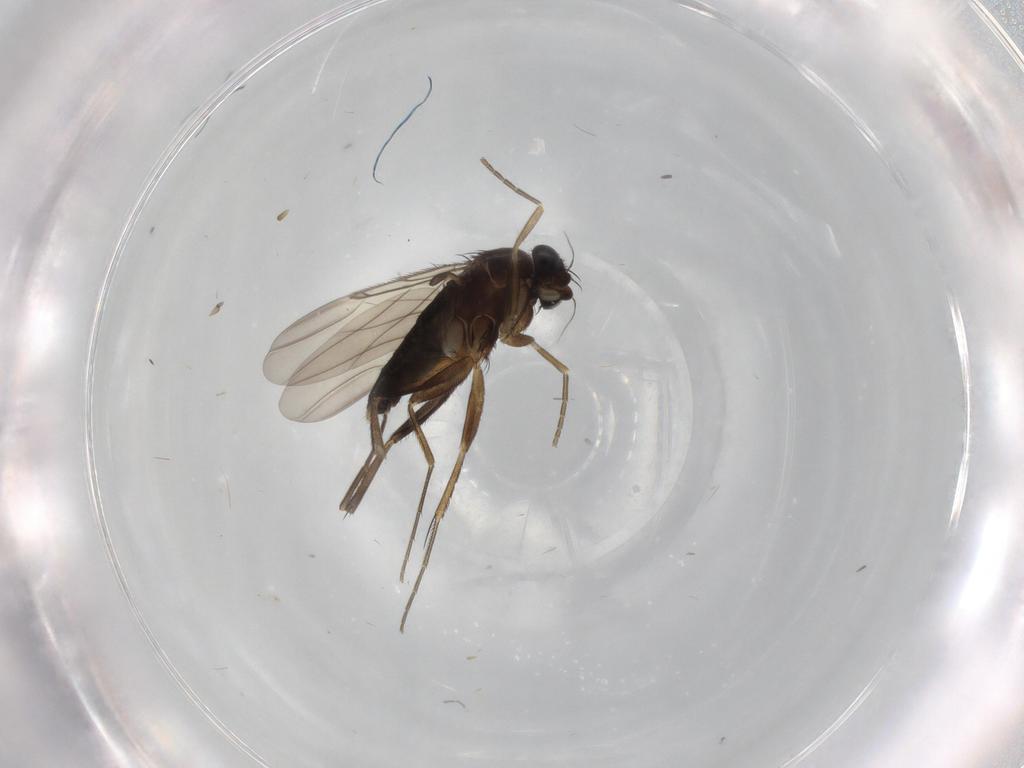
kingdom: Animalia
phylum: Arthropoda
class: Insecta
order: Diptera
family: Phoridae
